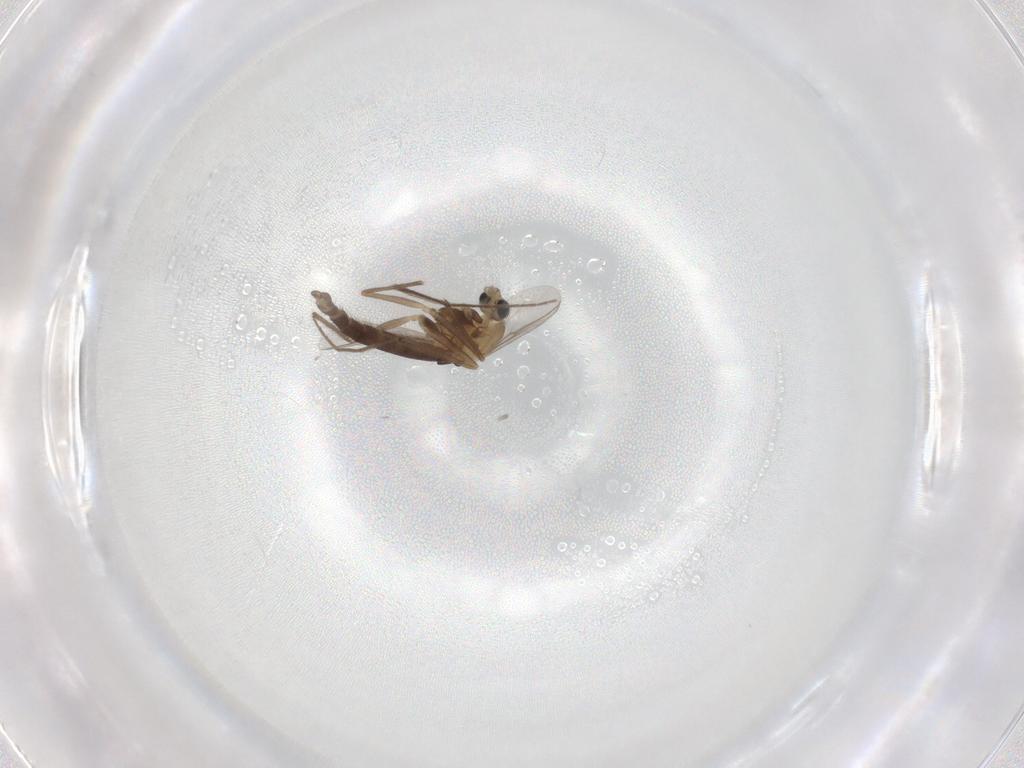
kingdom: Animalia
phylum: Arthropoda
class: Insecta
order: Diptera
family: Chironomidae
